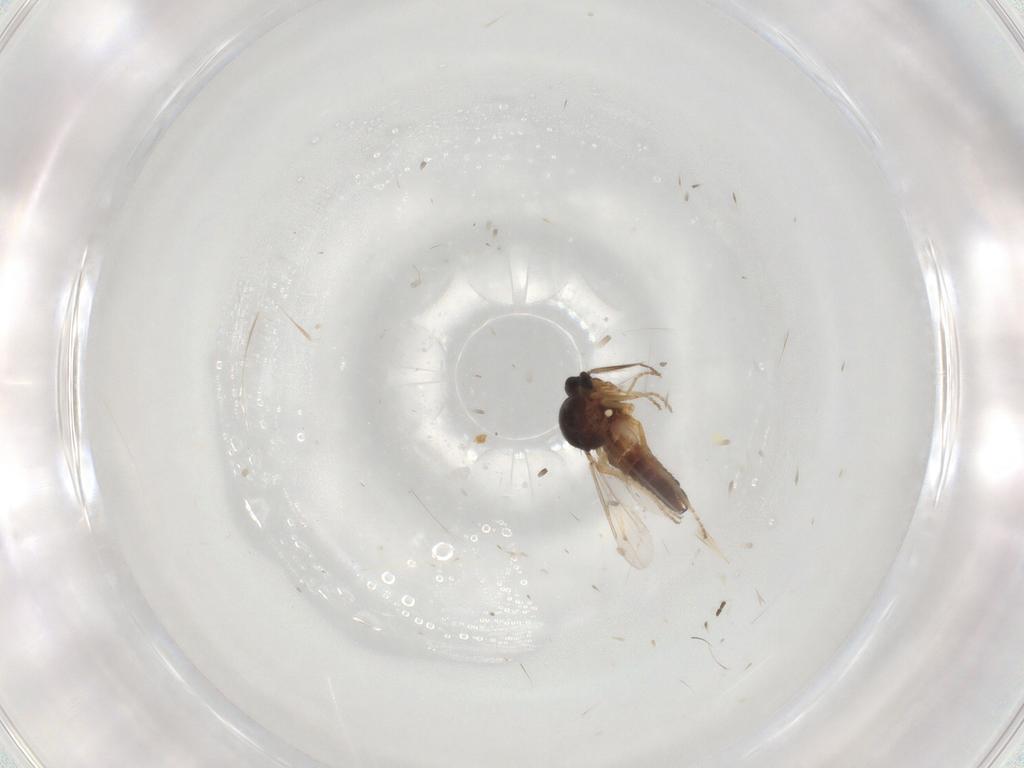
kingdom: Animalia
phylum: Arthropoda
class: Insecta
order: Diptera
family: Ceratopogonidae
